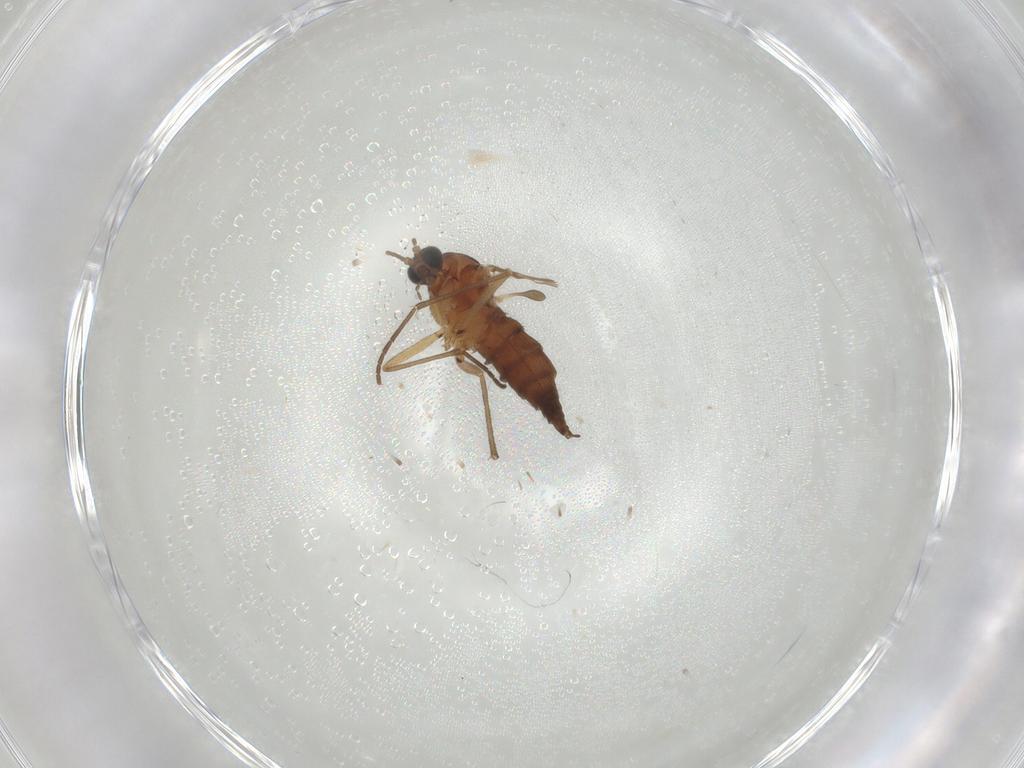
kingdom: Animalia
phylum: Arthropoda
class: Insecta
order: Diptera
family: Sciaridae
